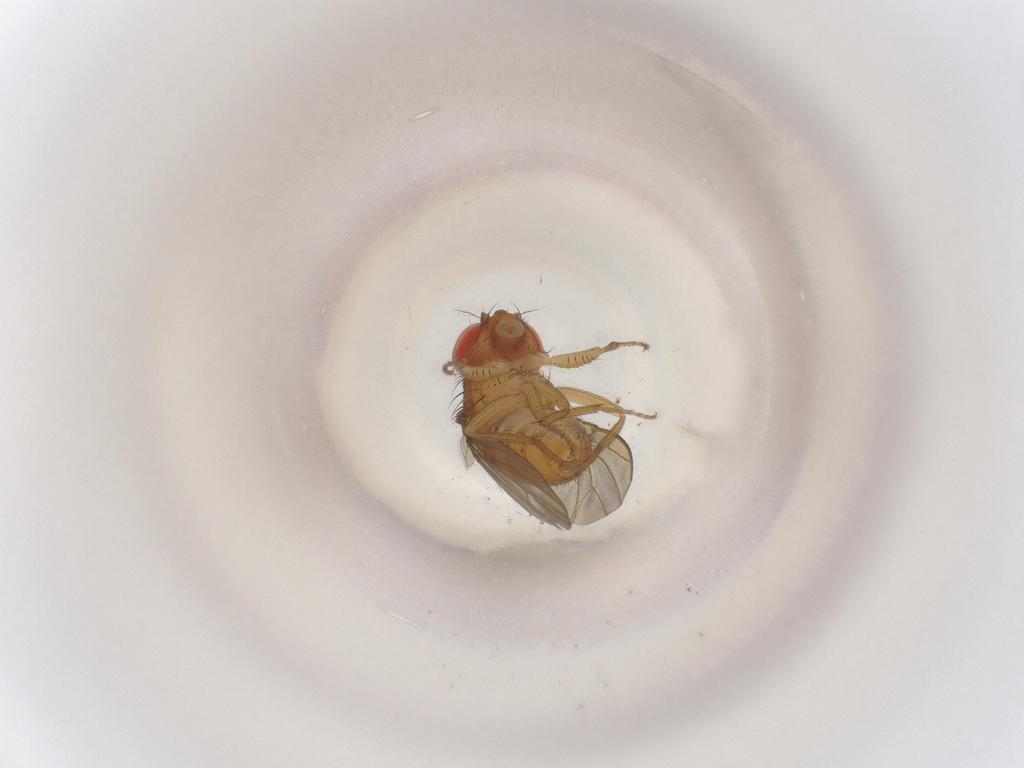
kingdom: Animalia
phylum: Arthropoda
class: Insecta
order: Diptera
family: Drosophilidae
